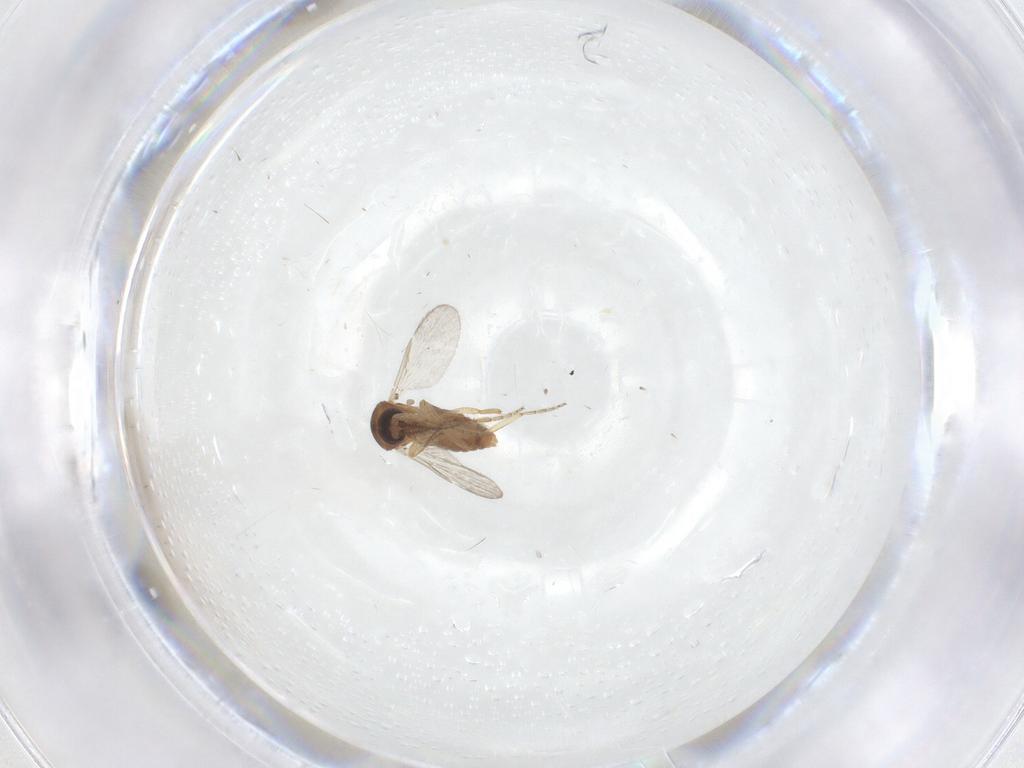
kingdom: Animalia
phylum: Arthropoda
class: Insecta
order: Diptera
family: Ceratopogonidae
